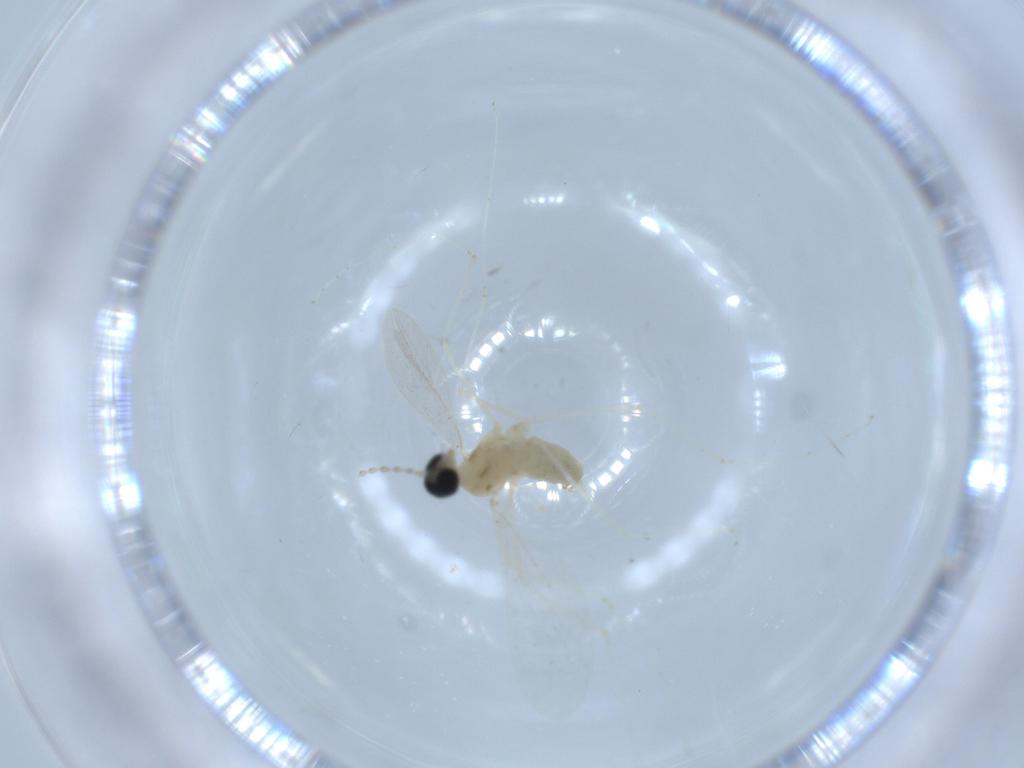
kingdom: Animalia
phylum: Arthropoda
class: Insecta
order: Diptera
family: Cecidomyiidae
